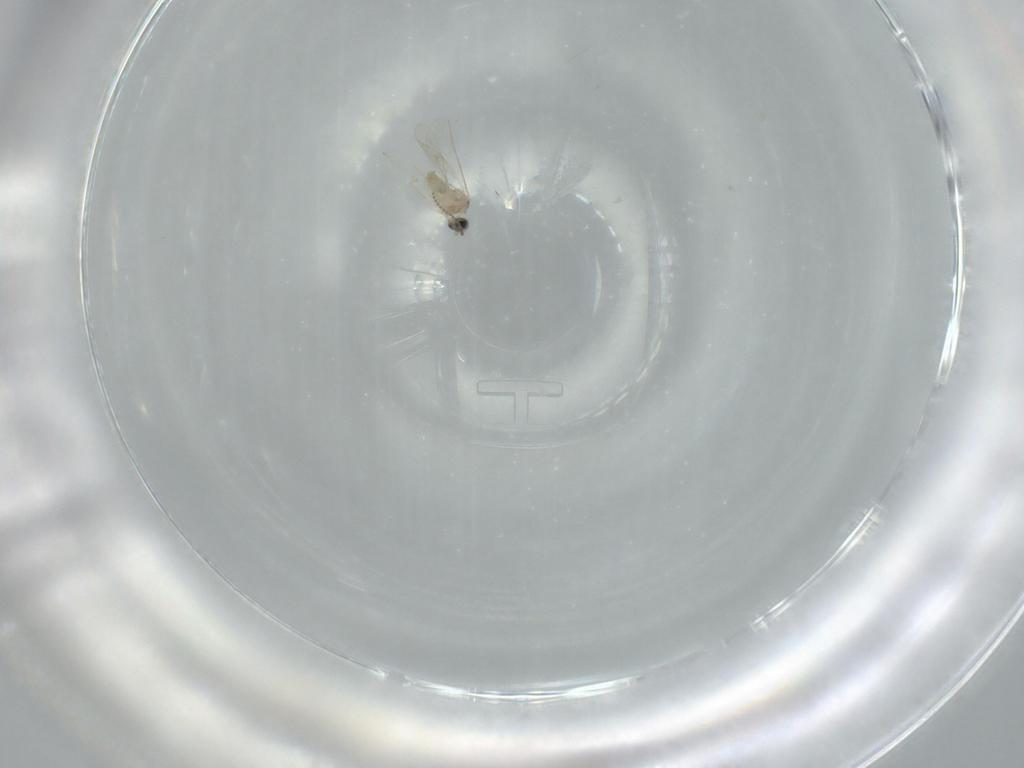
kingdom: Animalia
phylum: Arthropoda
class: Insecta
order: Diptera
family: Cecidomyiidae
